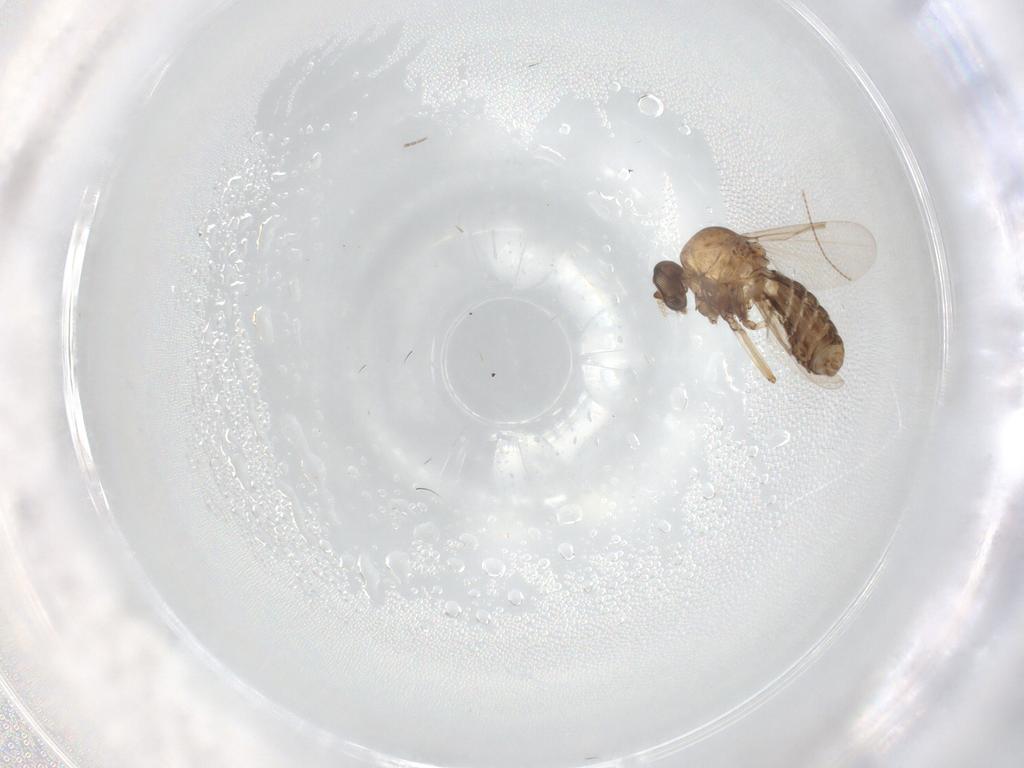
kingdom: Animalia
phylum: Arthropoda
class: Insecta
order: Diptera
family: Ceratopogonidae
